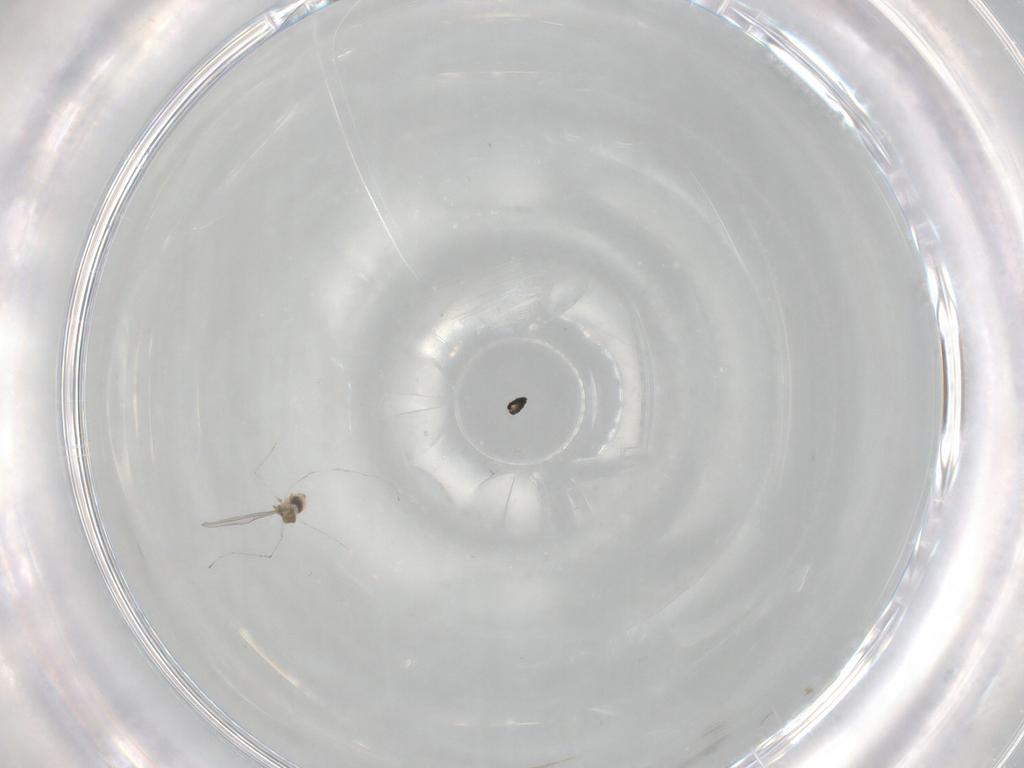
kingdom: Animalia
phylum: Arthropoda
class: Insecta
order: Diptera
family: Cecidomyiidae
